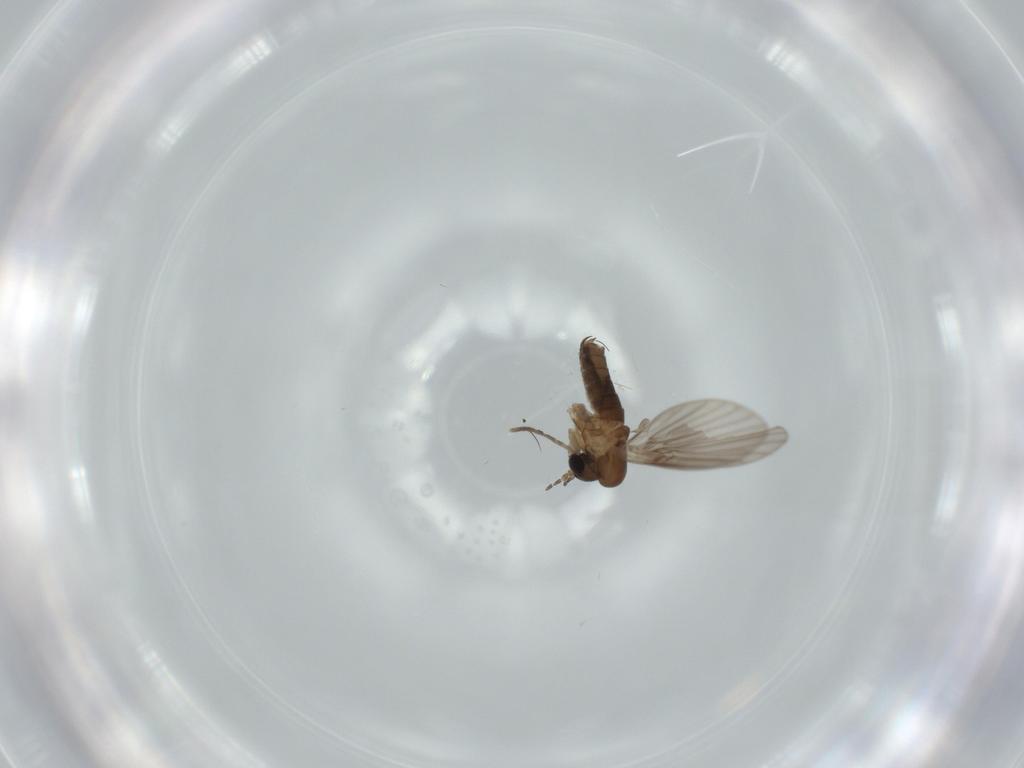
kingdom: Animalia
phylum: Arthropoda
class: Insecta
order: Diptera
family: Psychodidae
